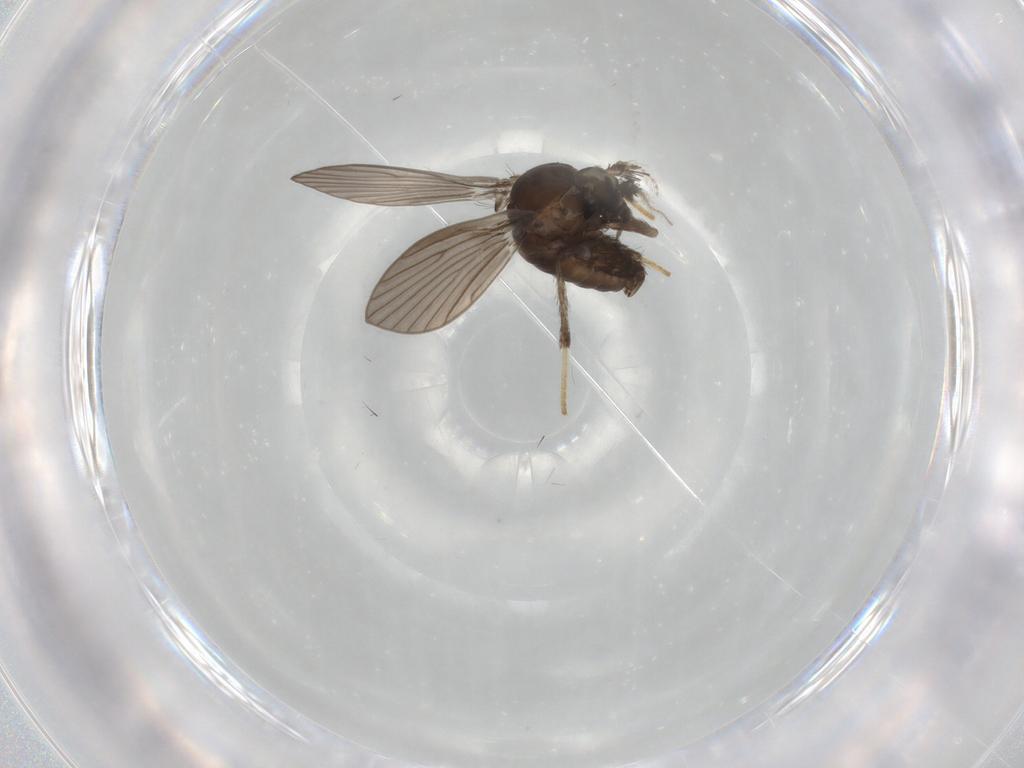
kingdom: Animalia
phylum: Arthropoda
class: Insecta
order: Diptera
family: Psychodidae
